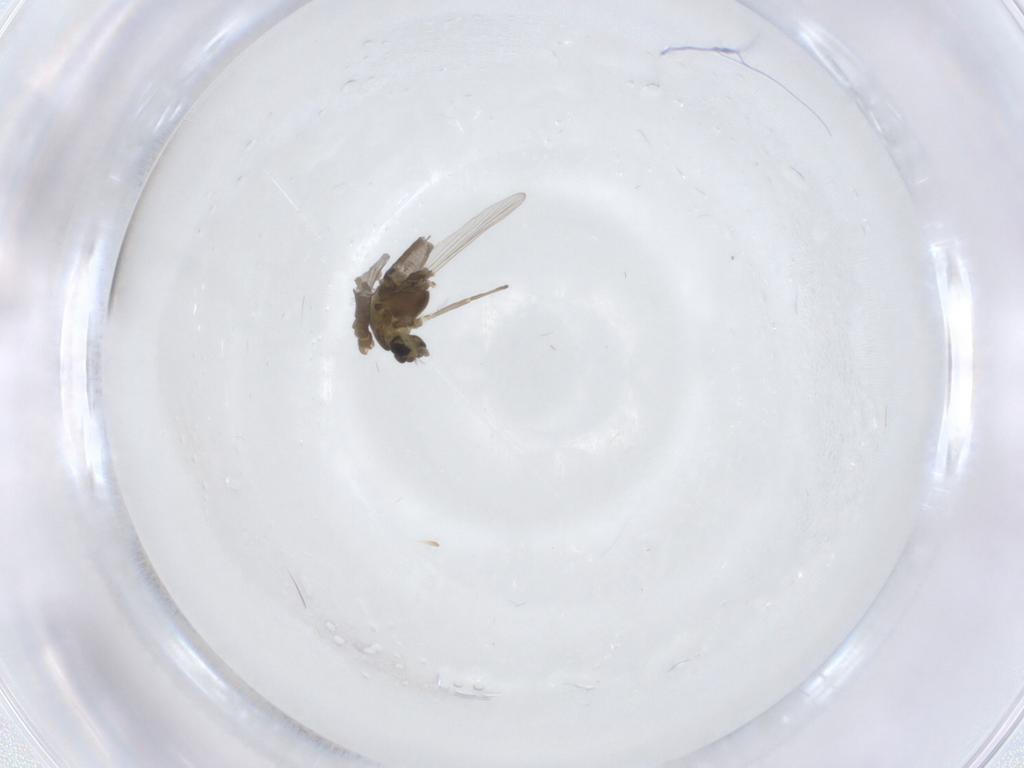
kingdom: Animalia
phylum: Arthropoda
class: Insecta
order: Diptera
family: Chironomidae
